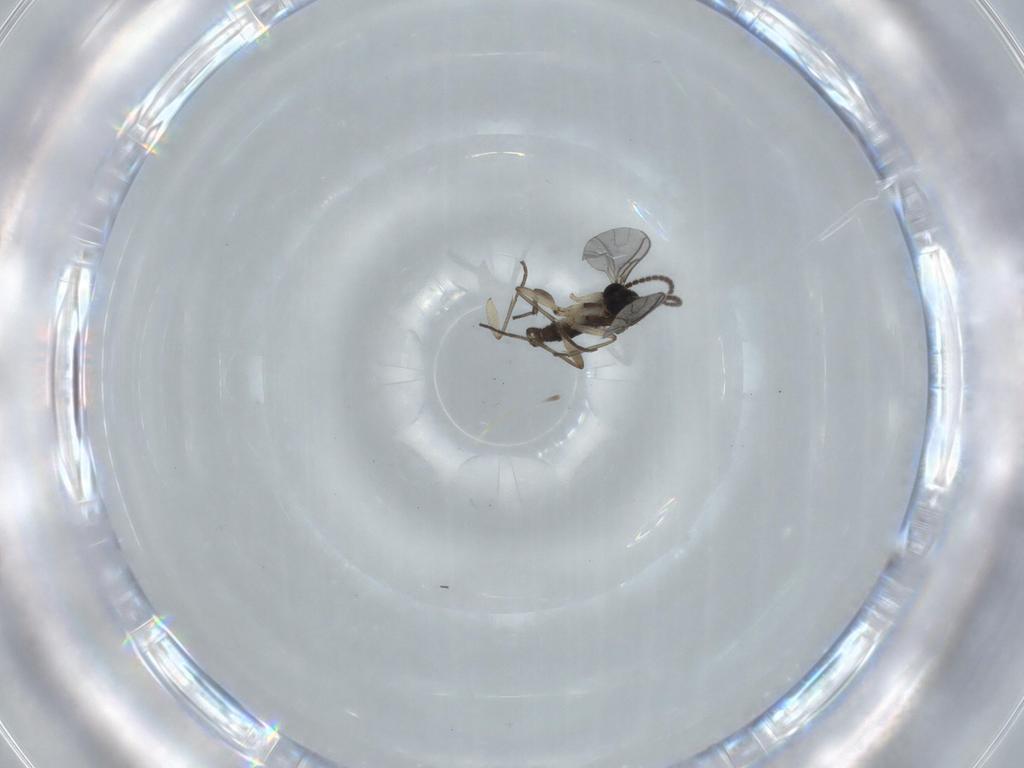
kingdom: Animalia
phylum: Arthropoda
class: Insecta
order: Diptera
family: Sciaridae
